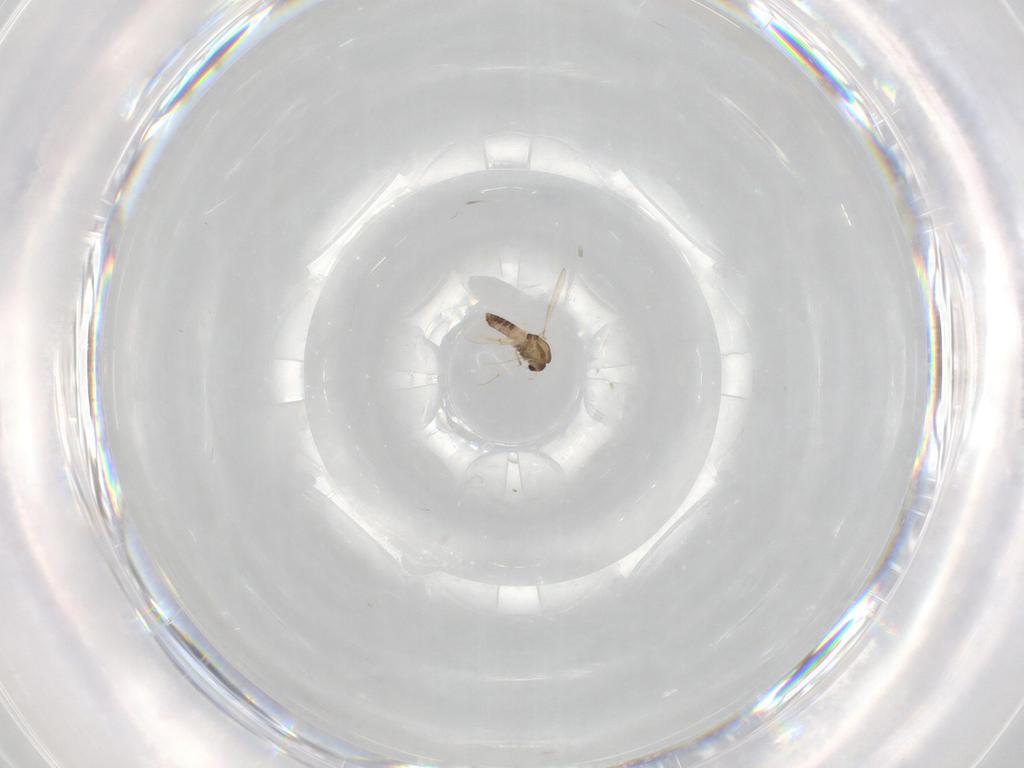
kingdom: Animalia
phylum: Arthropoda
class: Insecta
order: Diptera
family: Chironomidae
